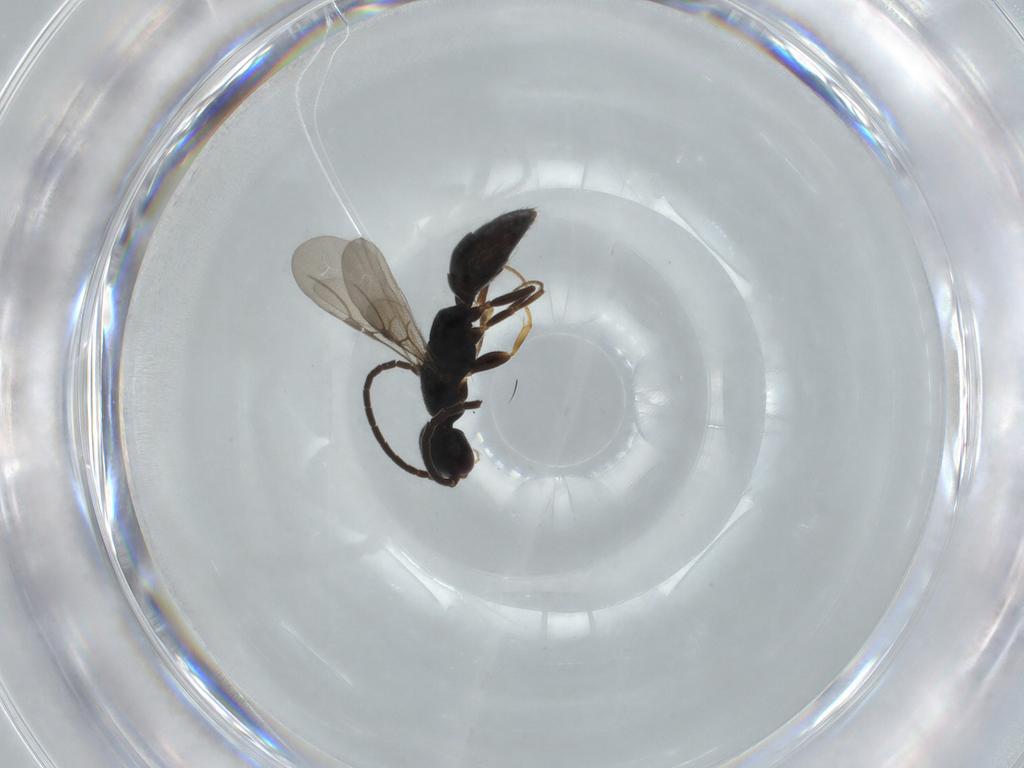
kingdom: Animalia
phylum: Arthropoda
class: Insecta
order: Hymenoptera
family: Bethylidae
